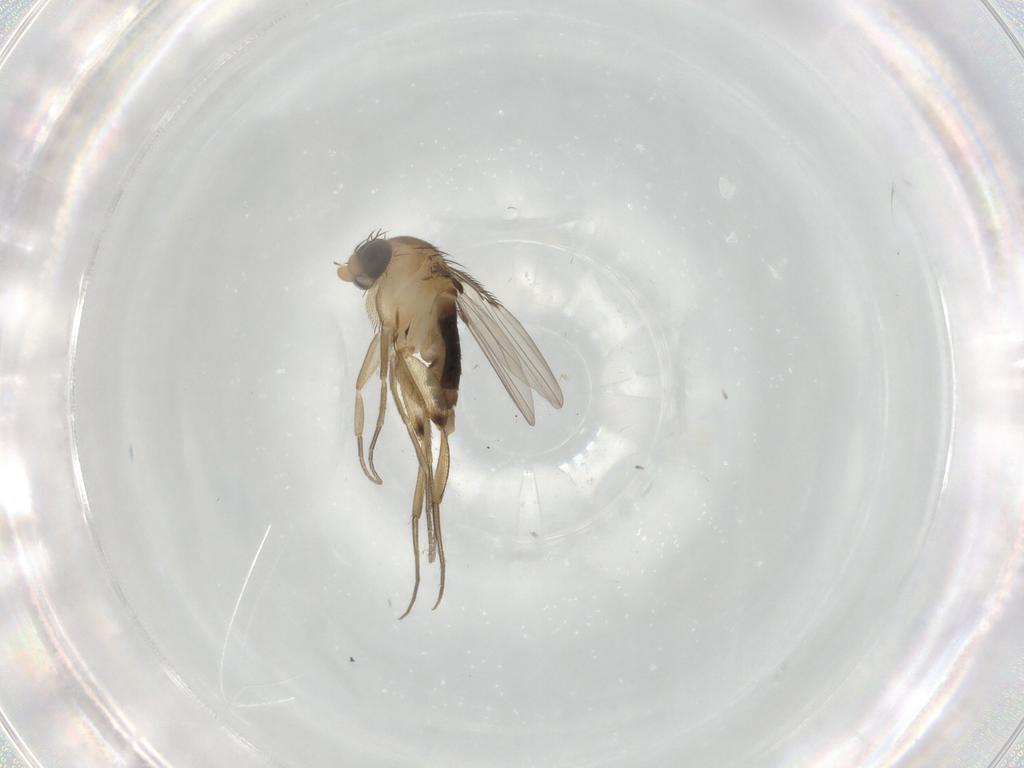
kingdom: Animalia
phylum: Arthropoda
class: Insecta
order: Diptera
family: Phoridae
